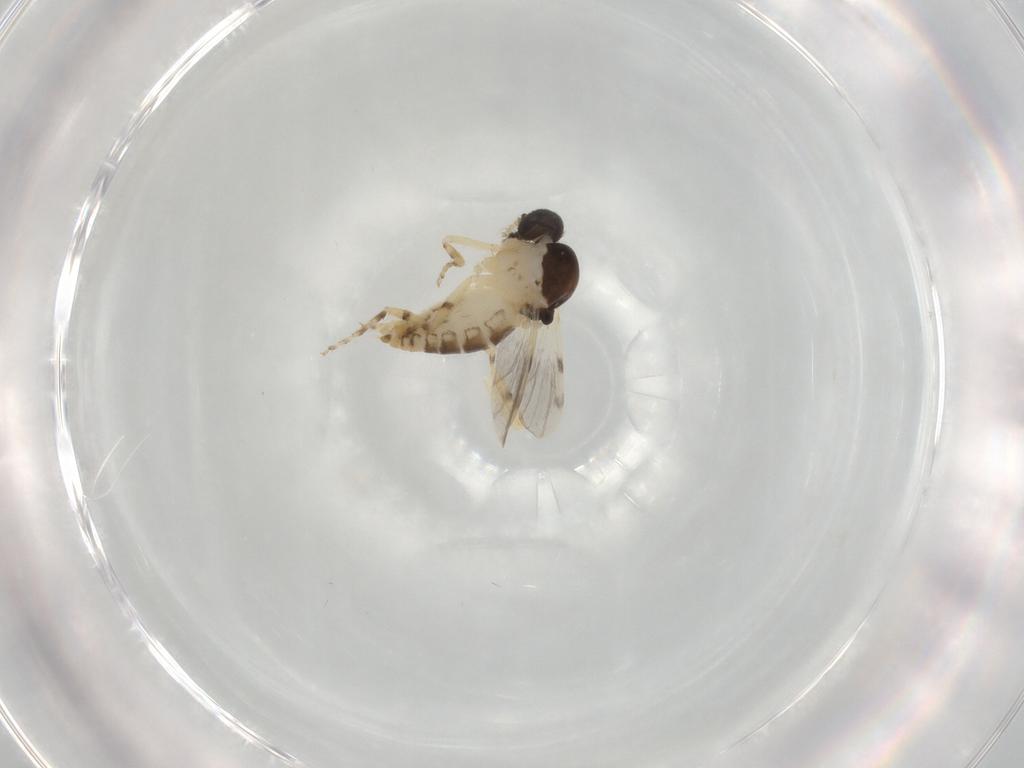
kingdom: Animalia
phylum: Arthropoda
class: Insecta
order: Diptera
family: Ceratopogonidae
